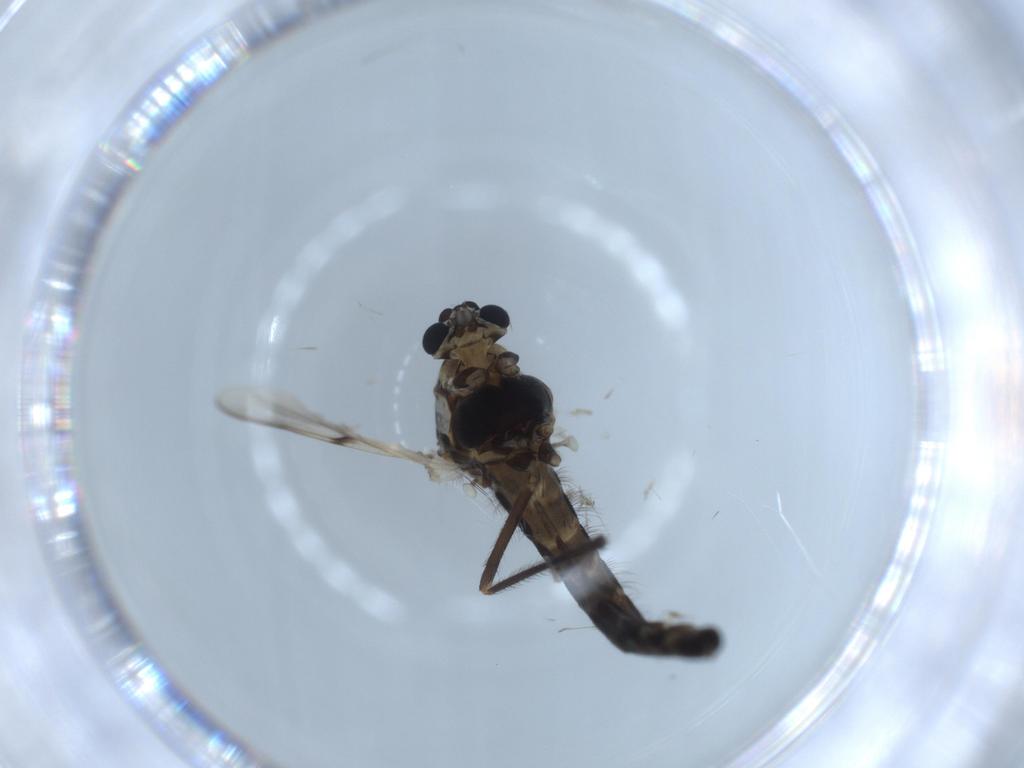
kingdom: Animalia
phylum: Arthropoda
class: Insecta
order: Diptera
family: Chironomidae
